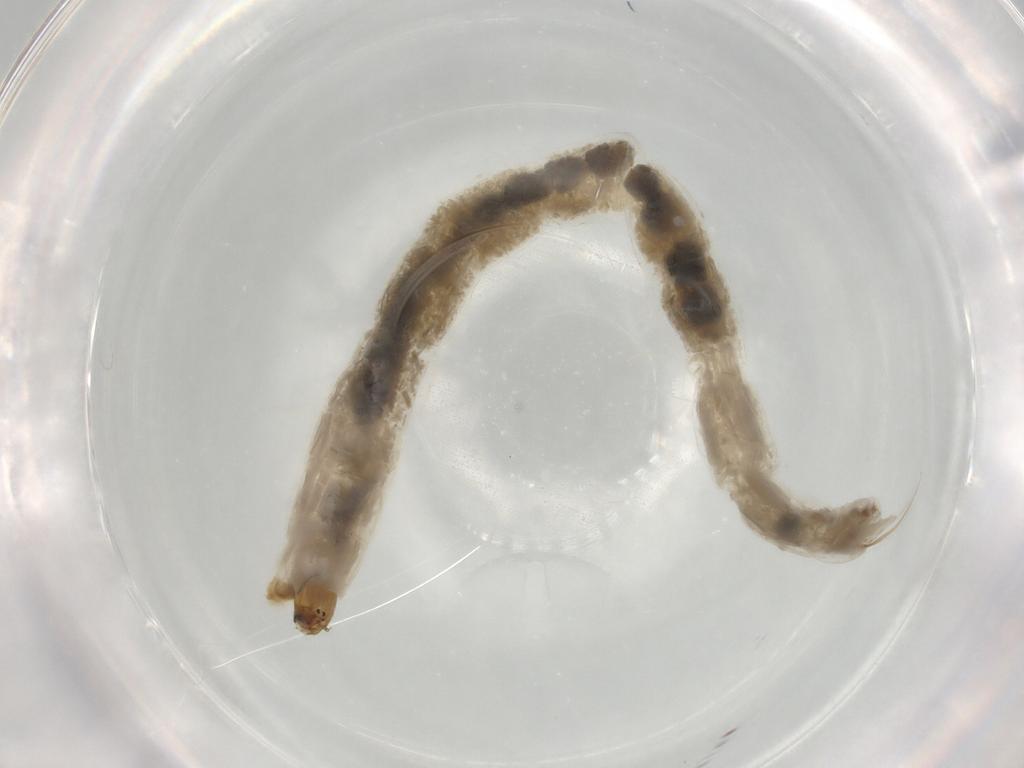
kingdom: Animalia
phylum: Arthropoda
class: Insecta
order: Diptera
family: Chironomidae
